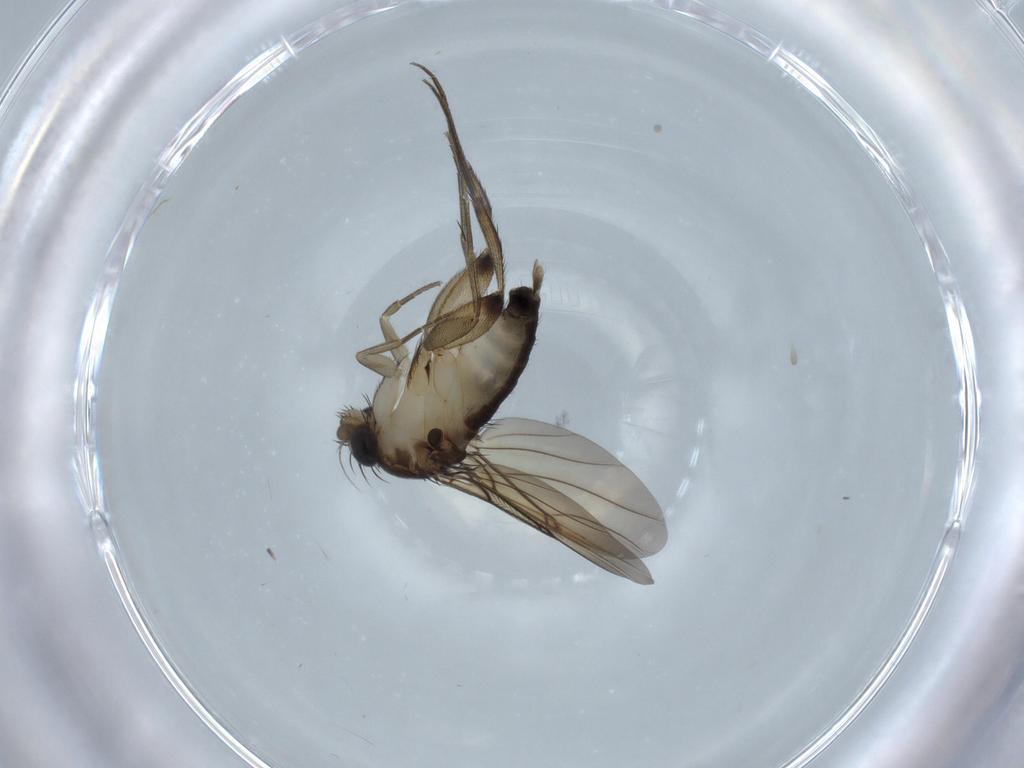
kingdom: Animalia
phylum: Arthropoda
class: Insecta
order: Diptera
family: Phoridae
